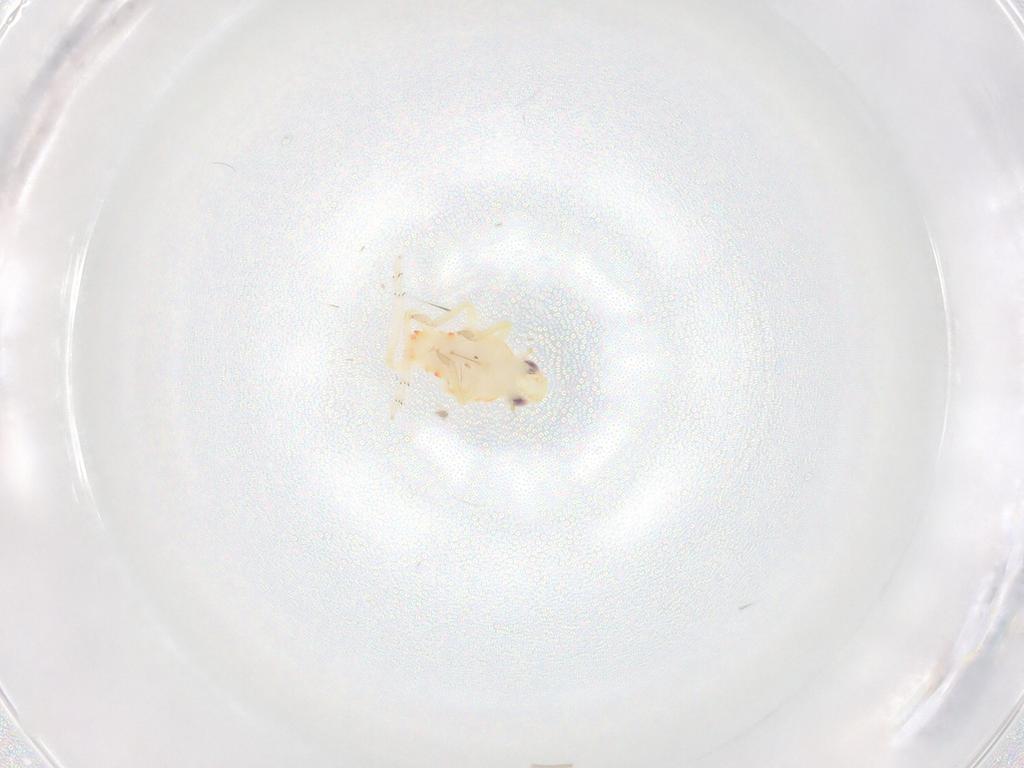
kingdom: Animalia
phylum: Arthropoda
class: Insecta
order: Hemiptera
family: Tropiduchidae
